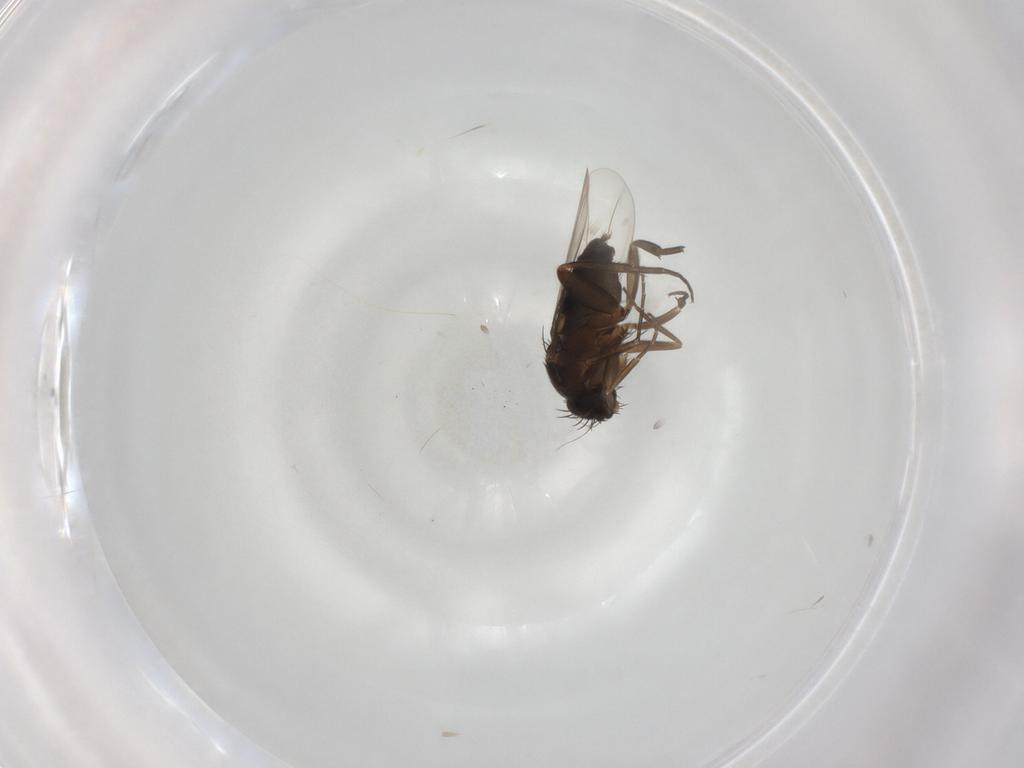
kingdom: Animalia
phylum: Arthropoda
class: Insecta
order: Diptera
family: Phoridae
